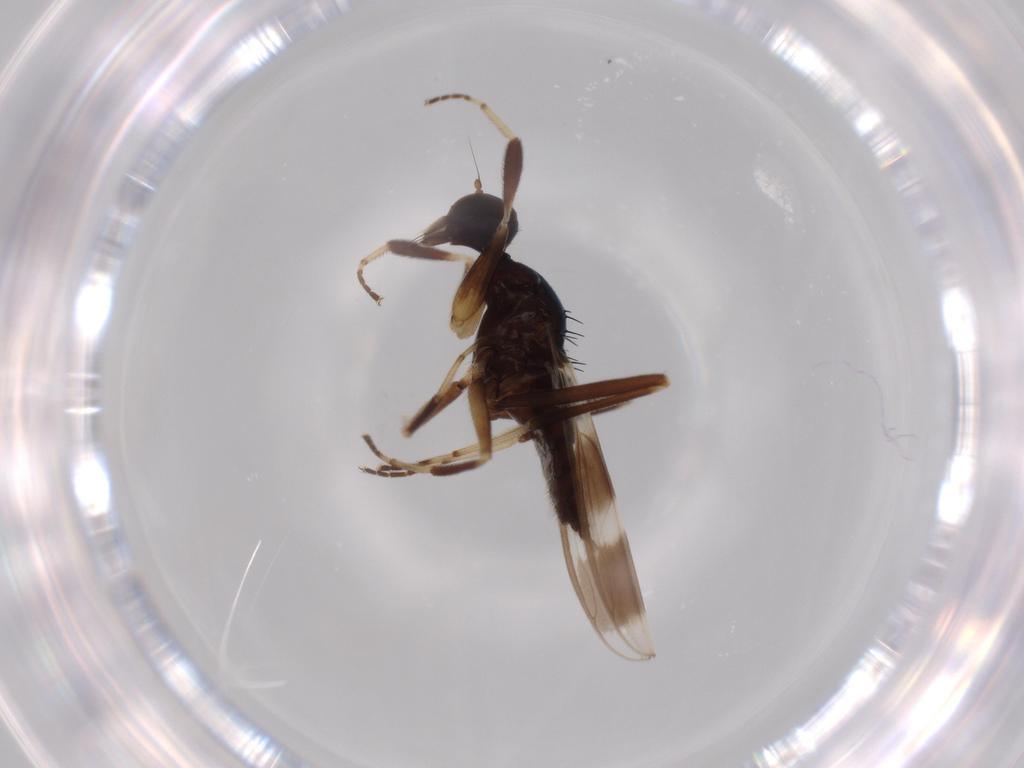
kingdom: Animalia
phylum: Arthropoda
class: Insecta
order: Diptera
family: Hybotidae
